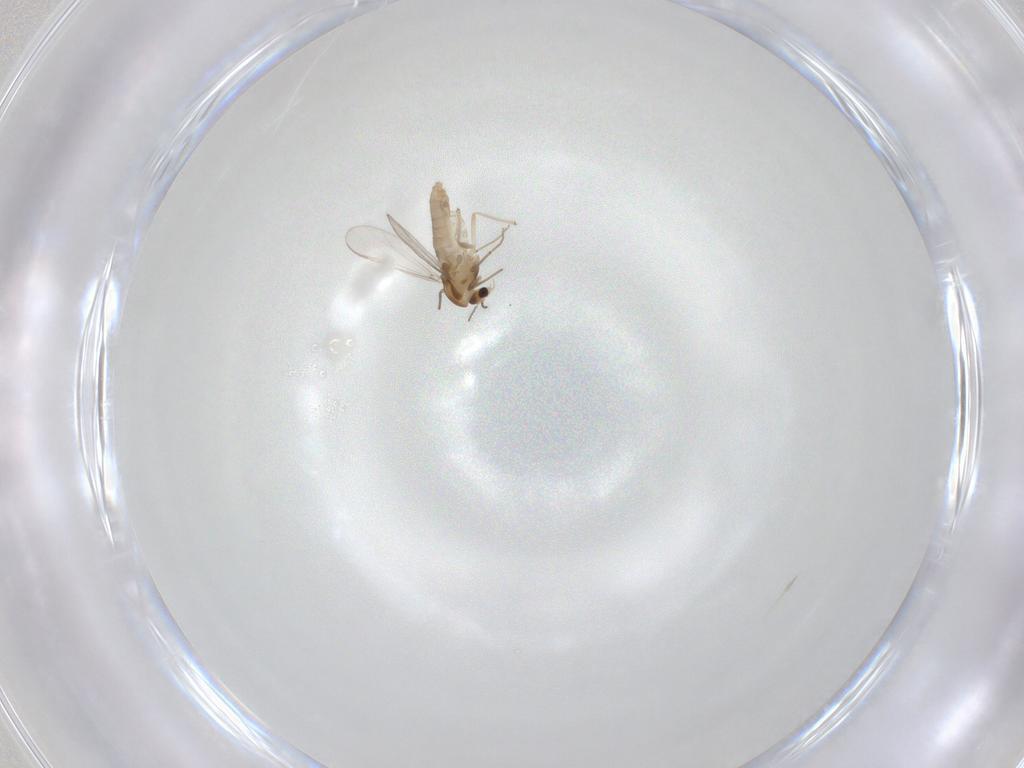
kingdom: Animalia
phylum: Arthropoda
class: Insecta
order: Diptera
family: Chironomidae
